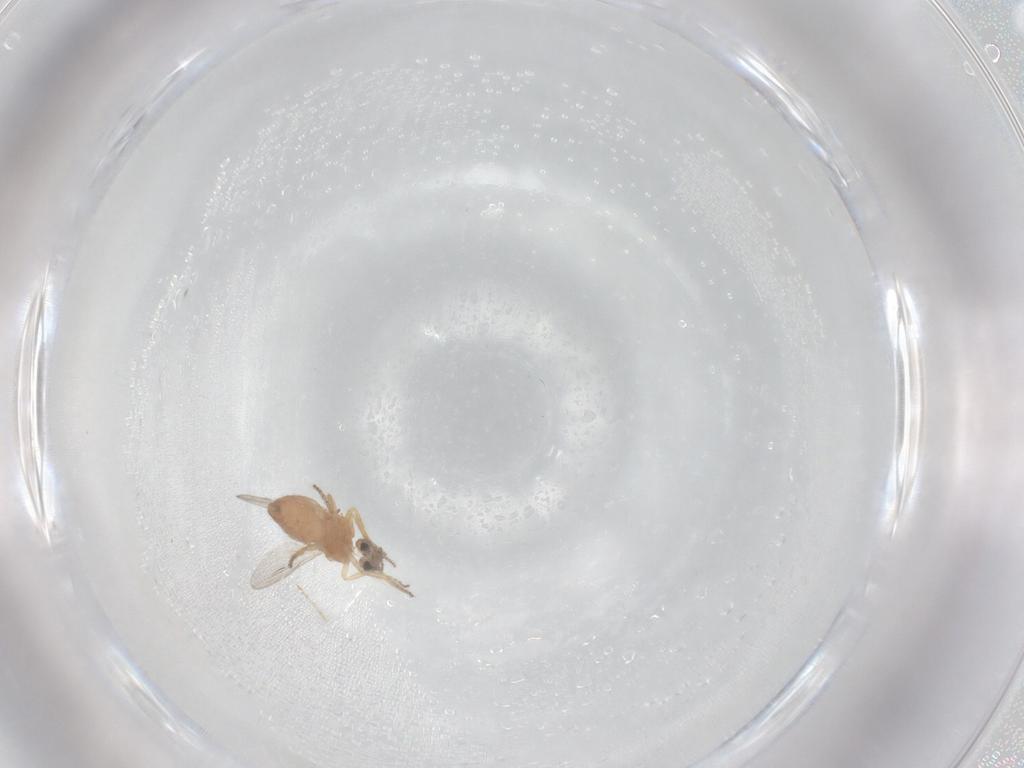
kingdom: Animalia
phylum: Arthropoda
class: Insecta
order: Diptera
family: Ceratopogonidae
